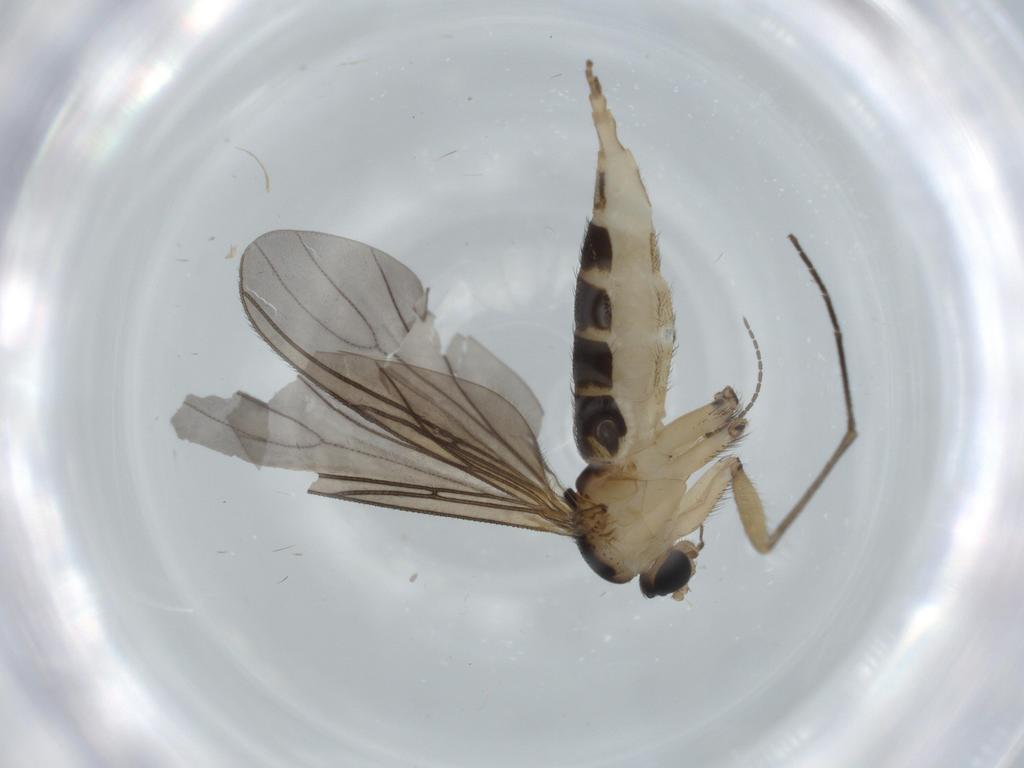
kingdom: Animalia
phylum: Arthropoda
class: Insecta
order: Diptera
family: Sciaridae
